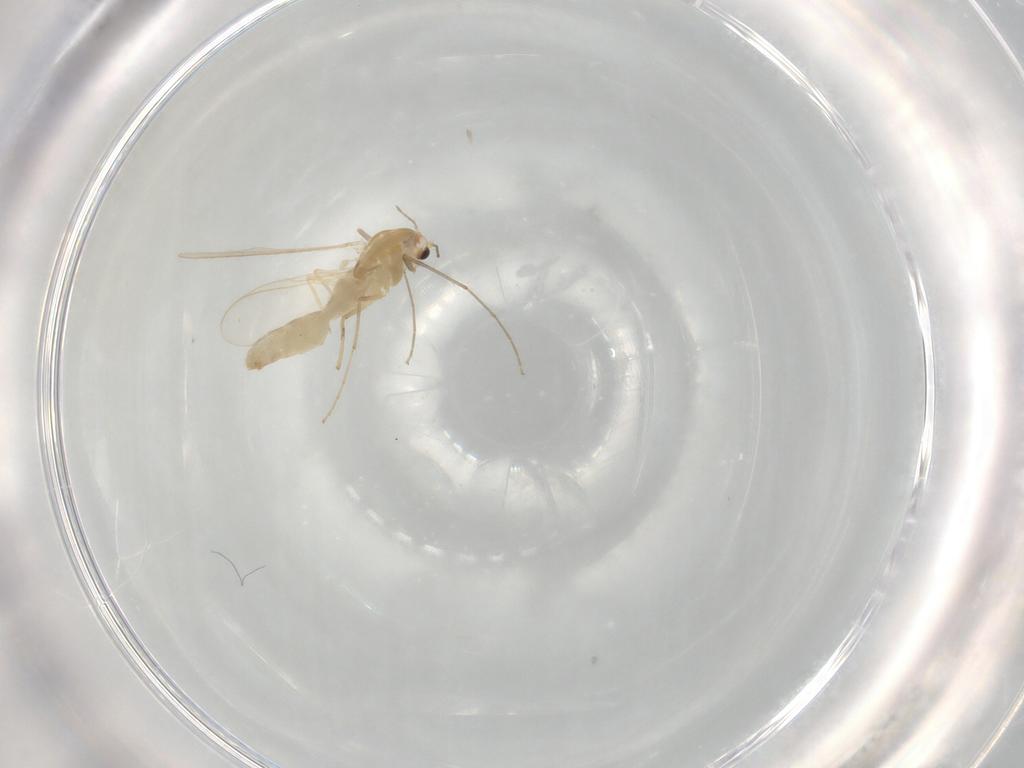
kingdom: Animalia
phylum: Arthropoda
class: Insecta
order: Diptera
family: Chironomidae
